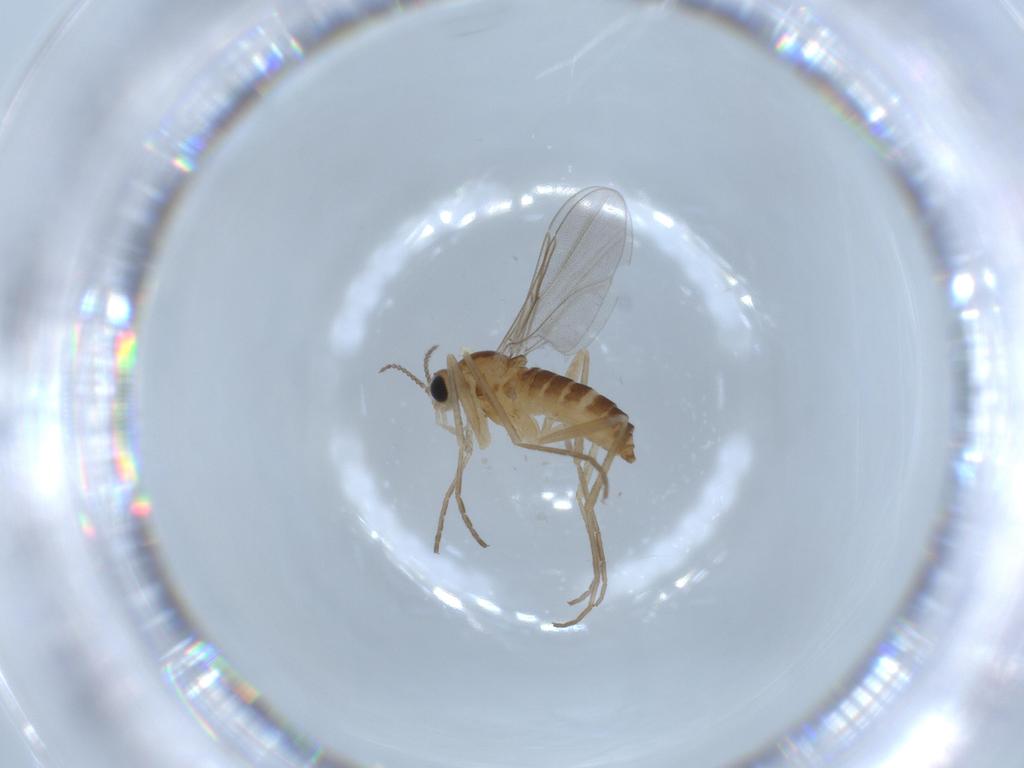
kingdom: Animalia
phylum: Arthropoda
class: Insecta
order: Diptera
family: Cecidomyiidae
